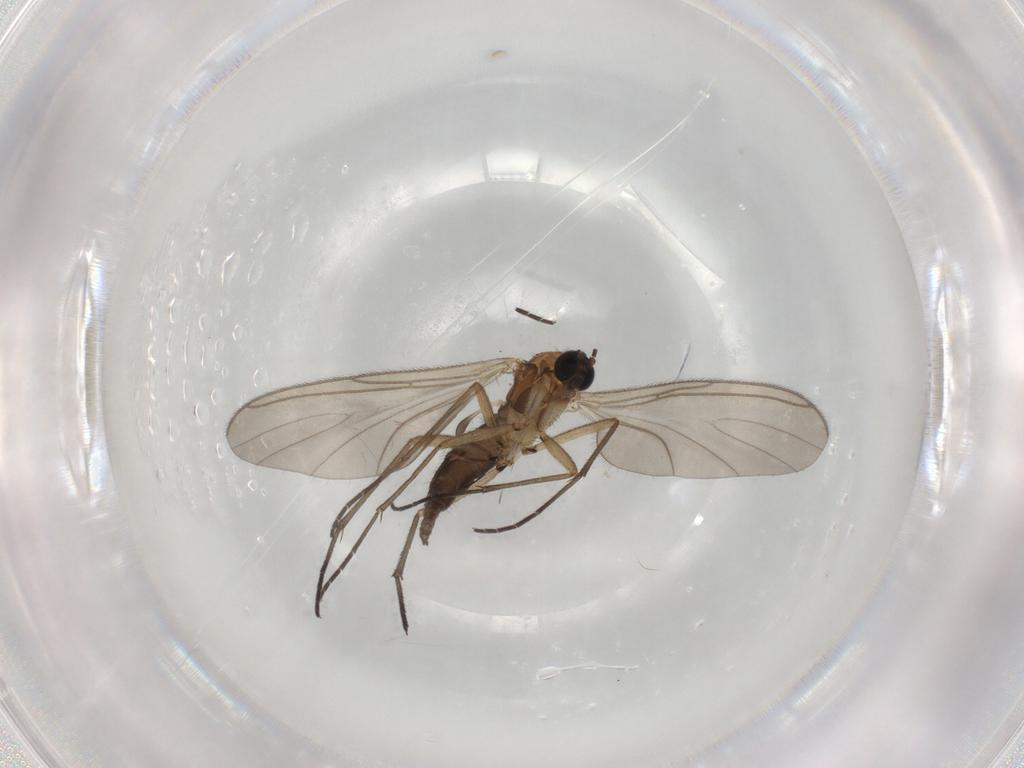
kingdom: Animalia
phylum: Arthropoda
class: Insecta
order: Diptera
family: Sciaridae
